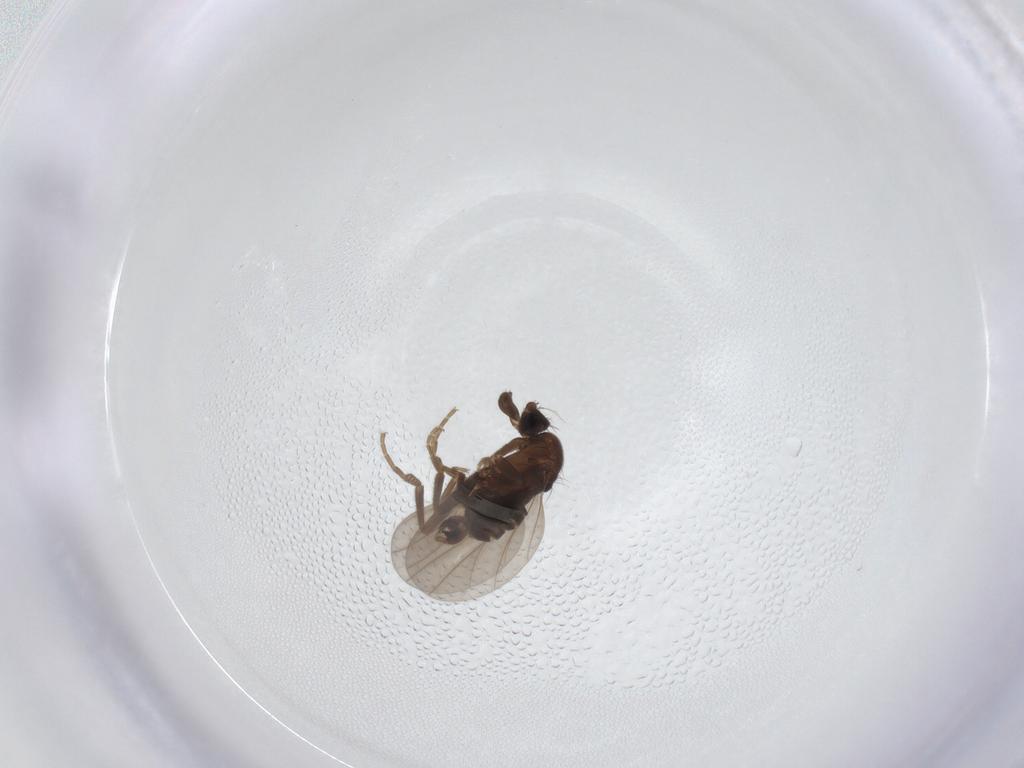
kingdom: Animalia
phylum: Arthropoda
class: Insecta
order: Diptera
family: Phoridae
